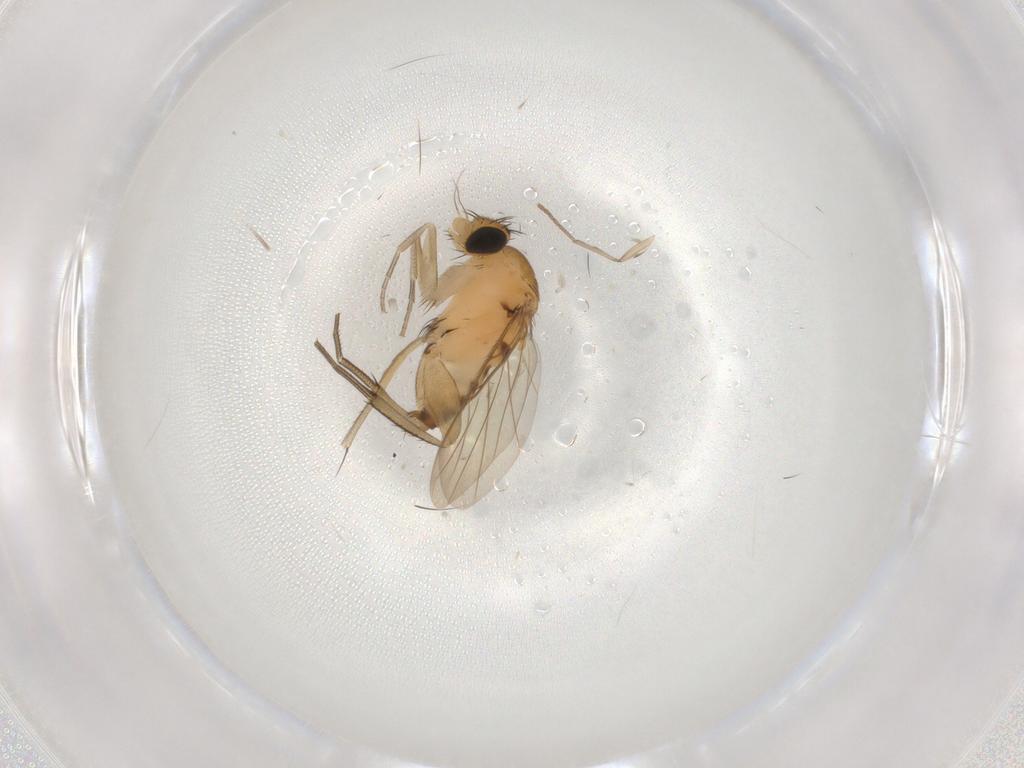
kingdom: Animalia
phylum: Arthropoda
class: Insecta
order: Diptera
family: Phoridae
